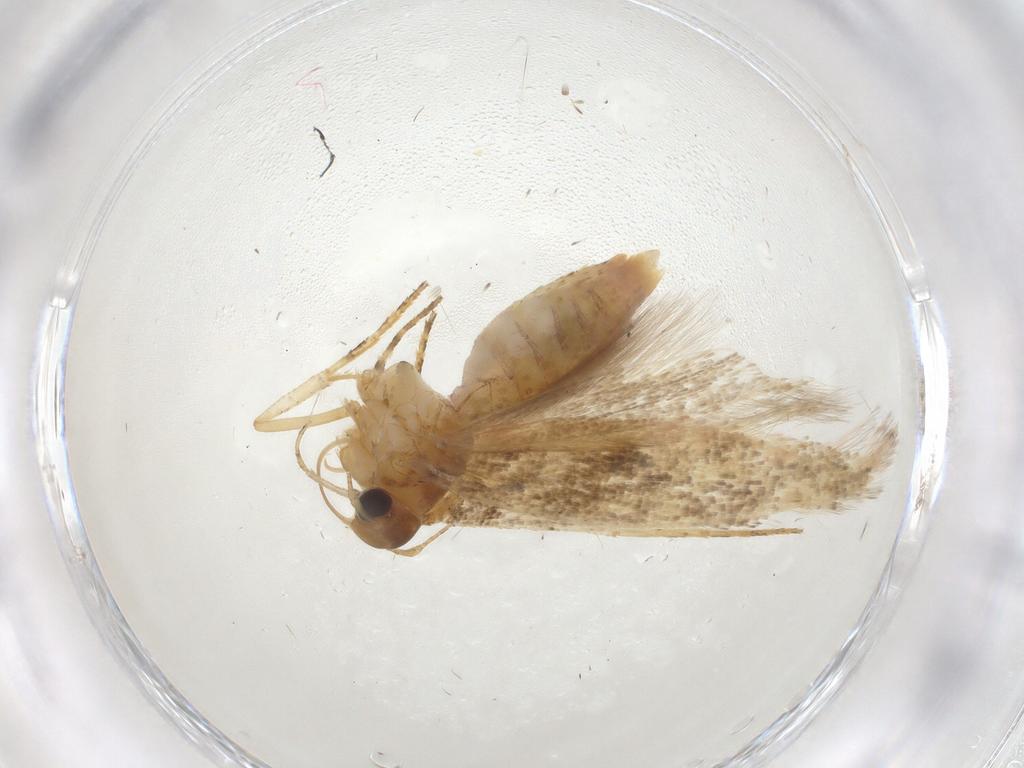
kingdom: Animalia
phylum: Arthropoda
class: Insecta
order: Lepidoptera
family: Gelechiidae
